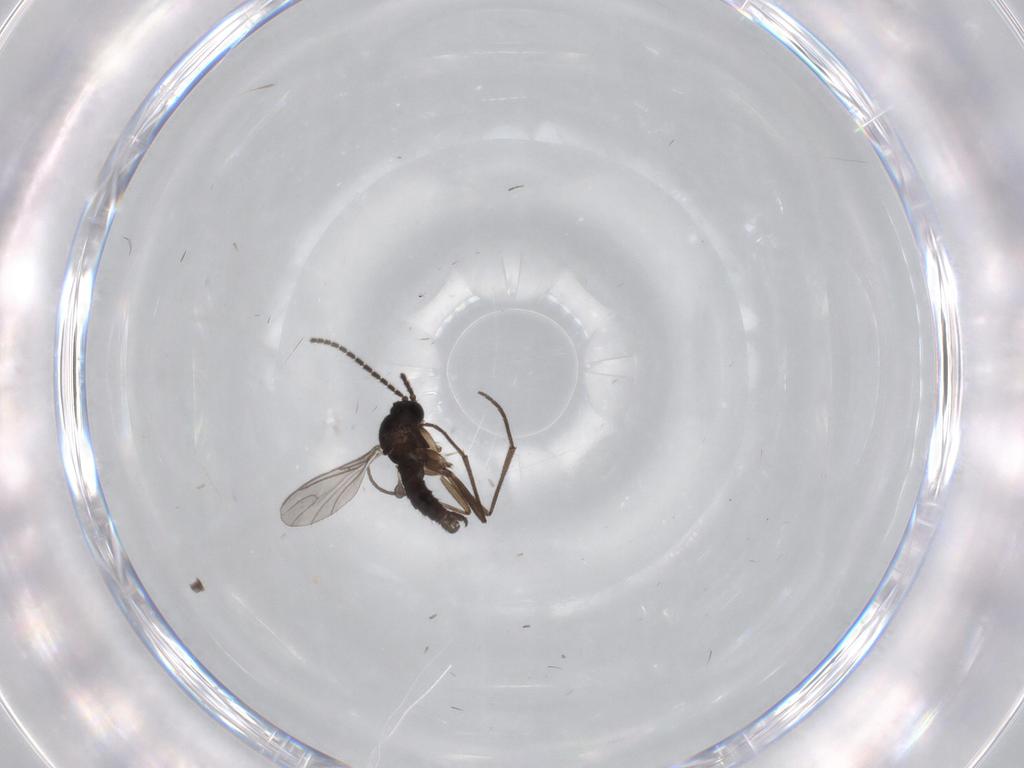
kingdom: Animalia
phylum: Arthropoda
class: Insecta
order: Diptera
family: Sciaridae
